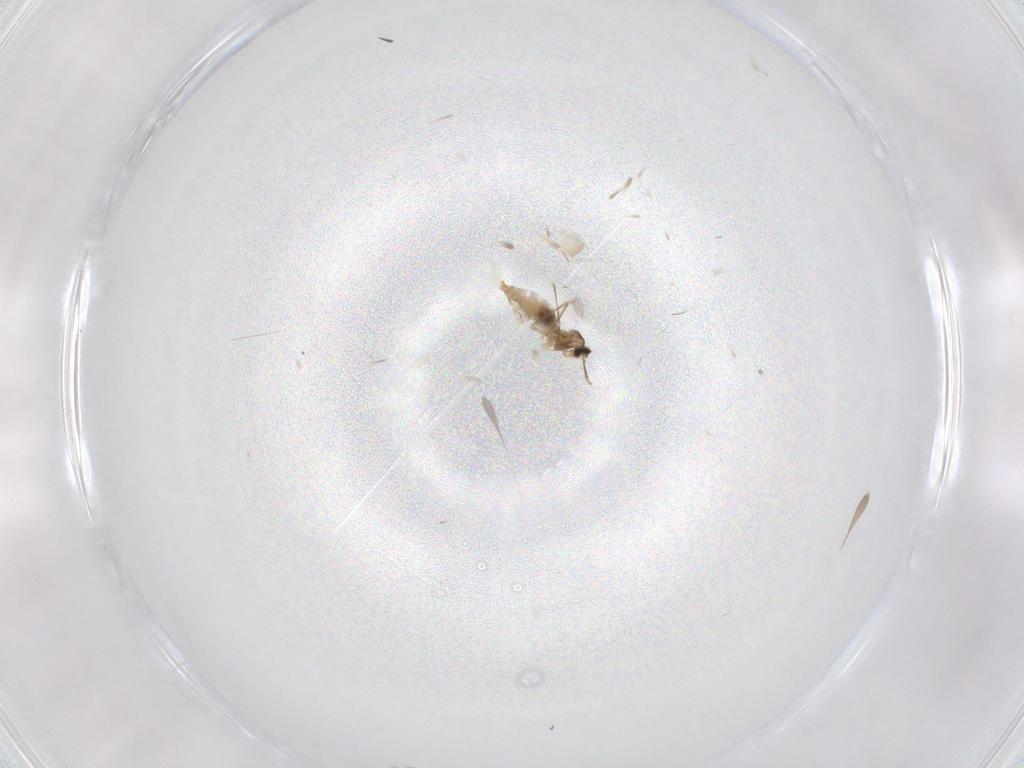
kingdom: Animalia
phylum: Arthropoda
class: Insecta
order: Diptera
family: Cecidomyiidae
